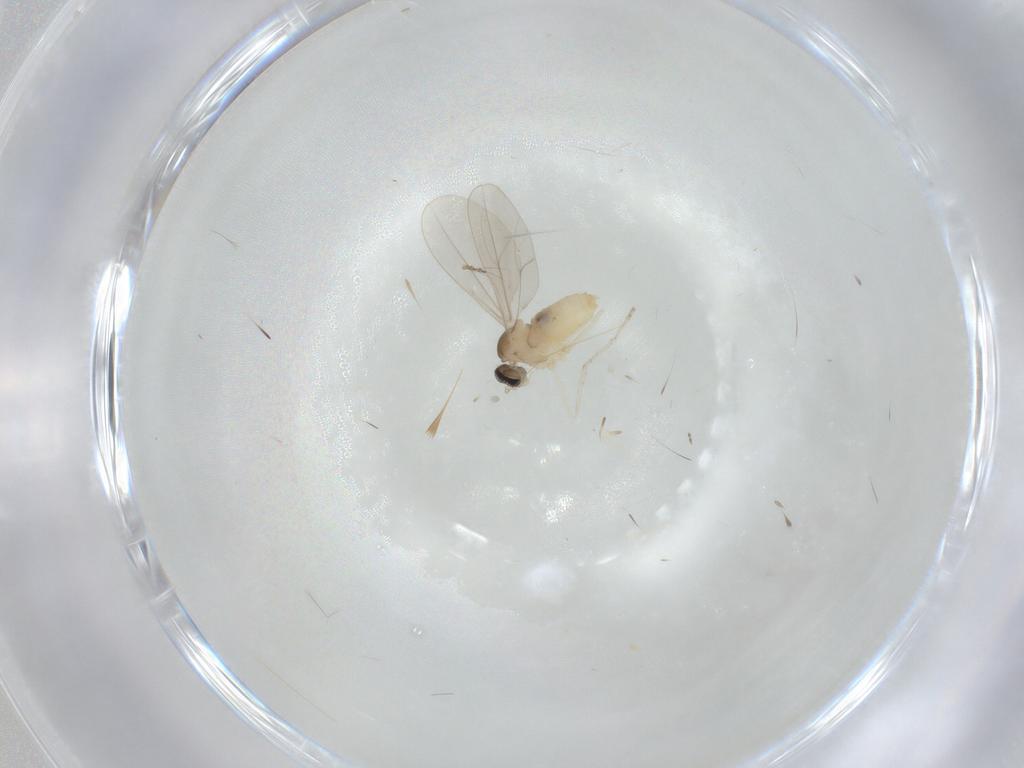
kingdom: Animalia
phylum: Arthropoda
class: Insecta
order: Diptera
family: Cecidomyiidae
